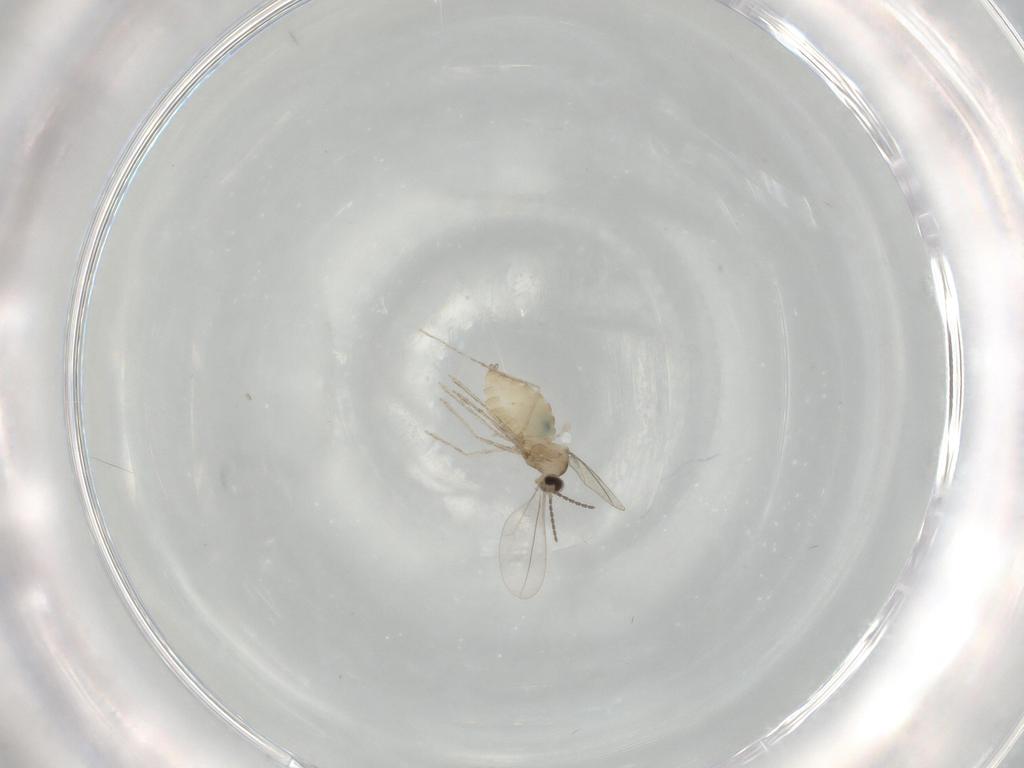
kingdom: Animalia
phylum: Arthropoda
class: Insecta
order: Diptera
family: Cecidomyiidae
